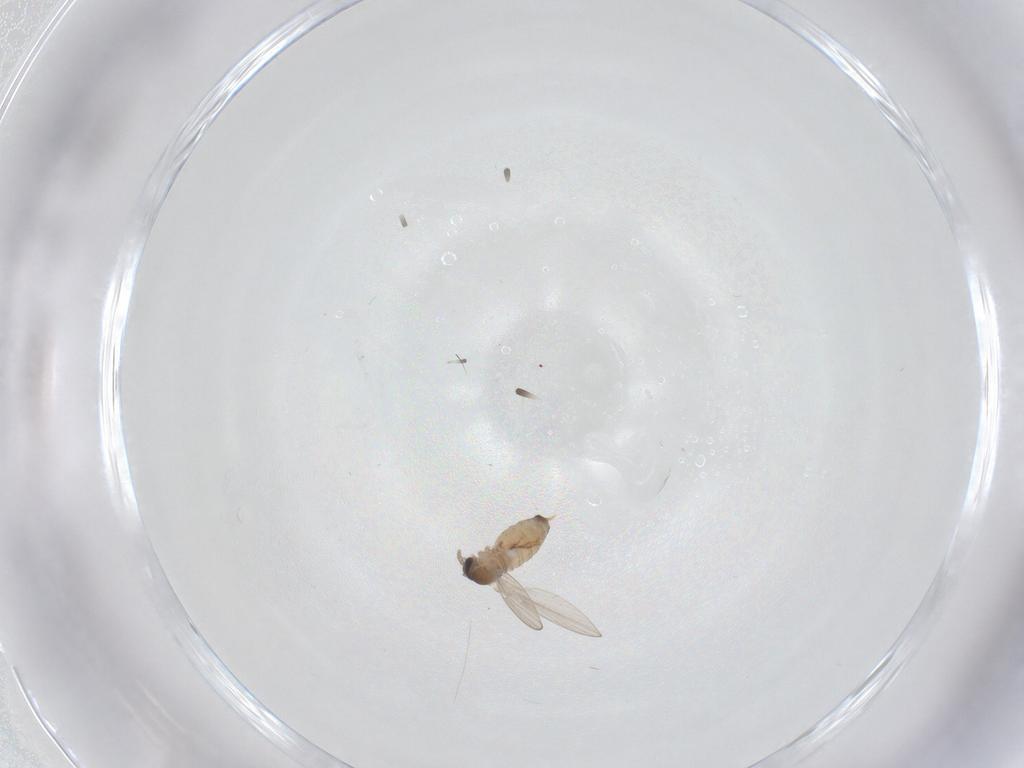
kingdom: Animalia
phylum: Arthropoda
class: Insecta
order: Diptera
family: Psychodidae
